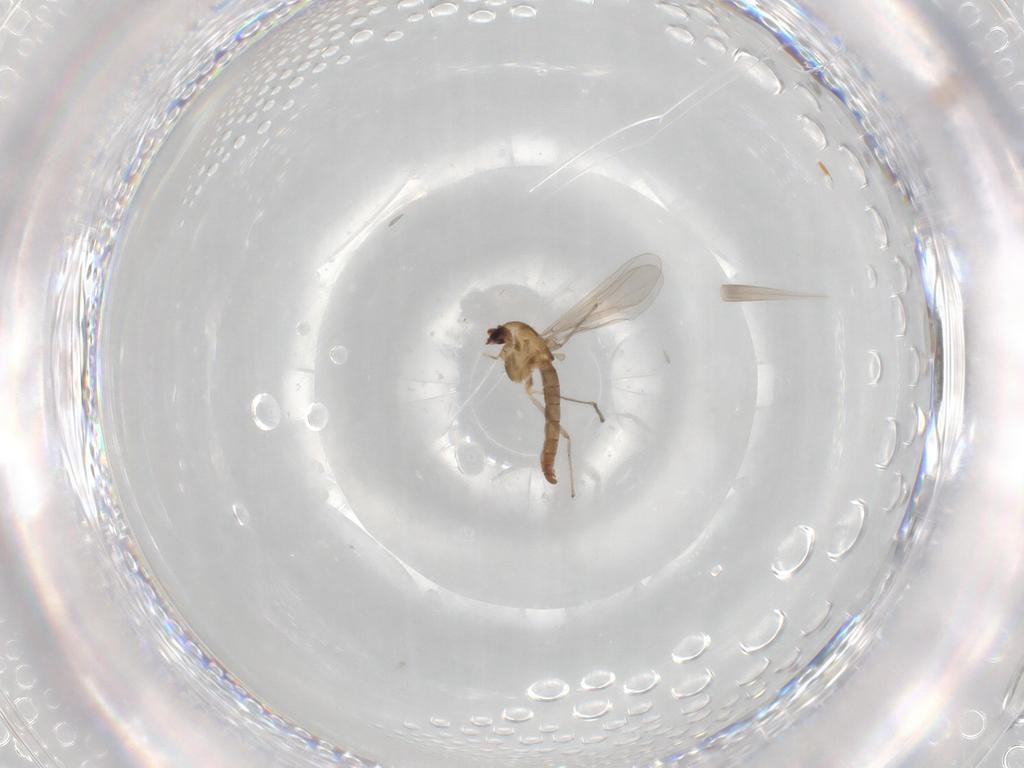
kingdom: Animalia
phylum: Arthropoda
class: Insecta
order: Diptera
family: Chironomidae
